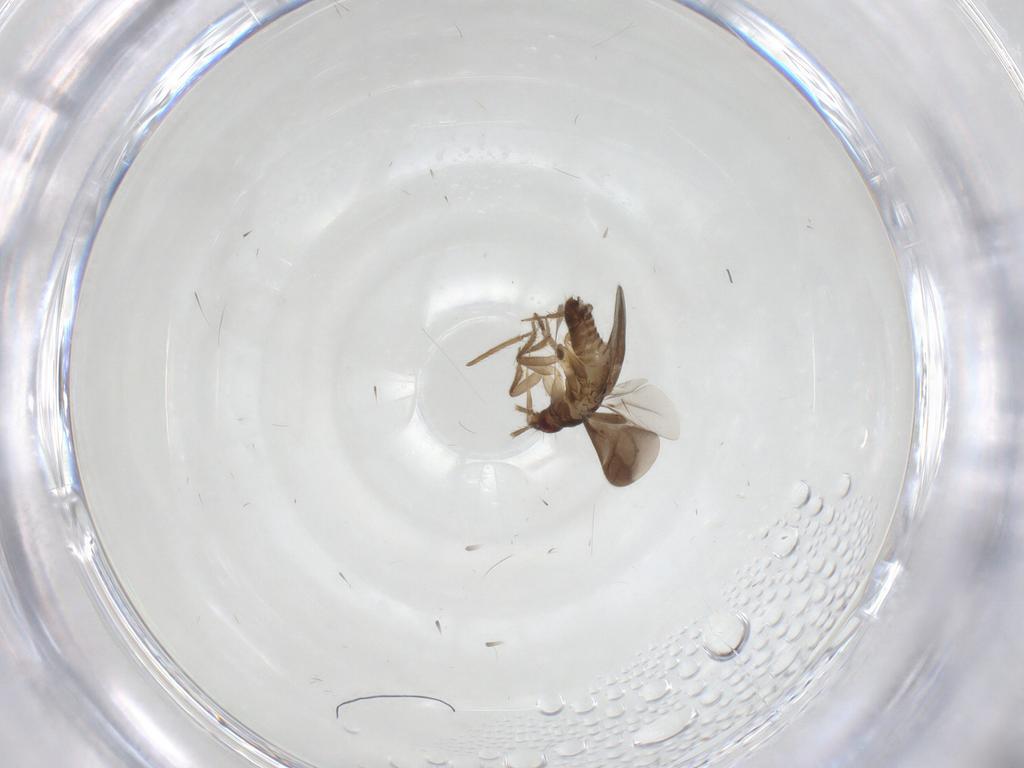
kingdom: Animalia
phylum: Arthropoda
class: Insecta
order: Hemiptera
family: Ceratocombidae
